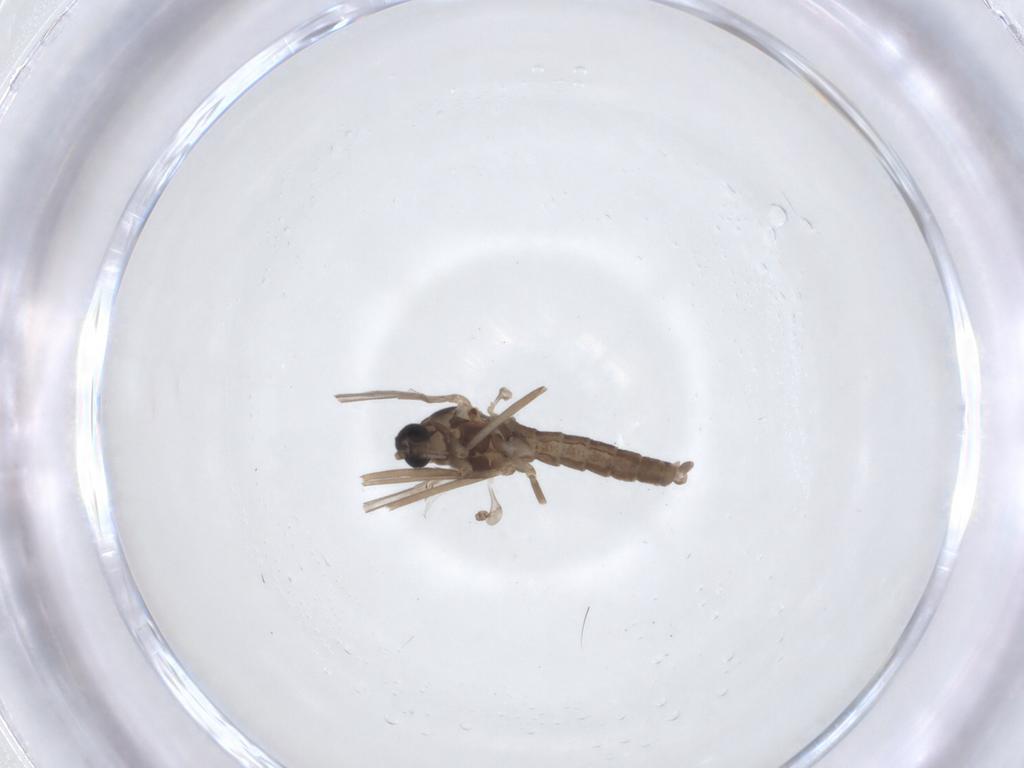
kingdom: Animalia
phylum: Arthropoda
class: Insecta
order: Diptera
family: Cecidomyiidae
